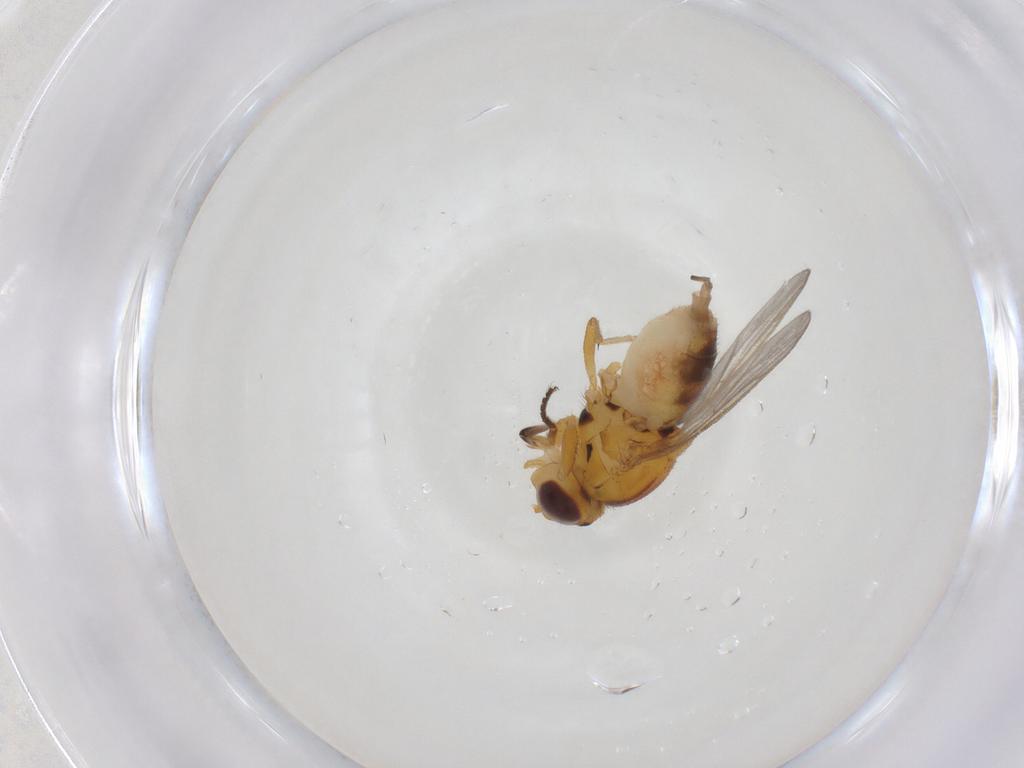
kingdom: Animalia
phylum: Arthropoda
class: Insecta
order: Diptera
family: Chloropidae
